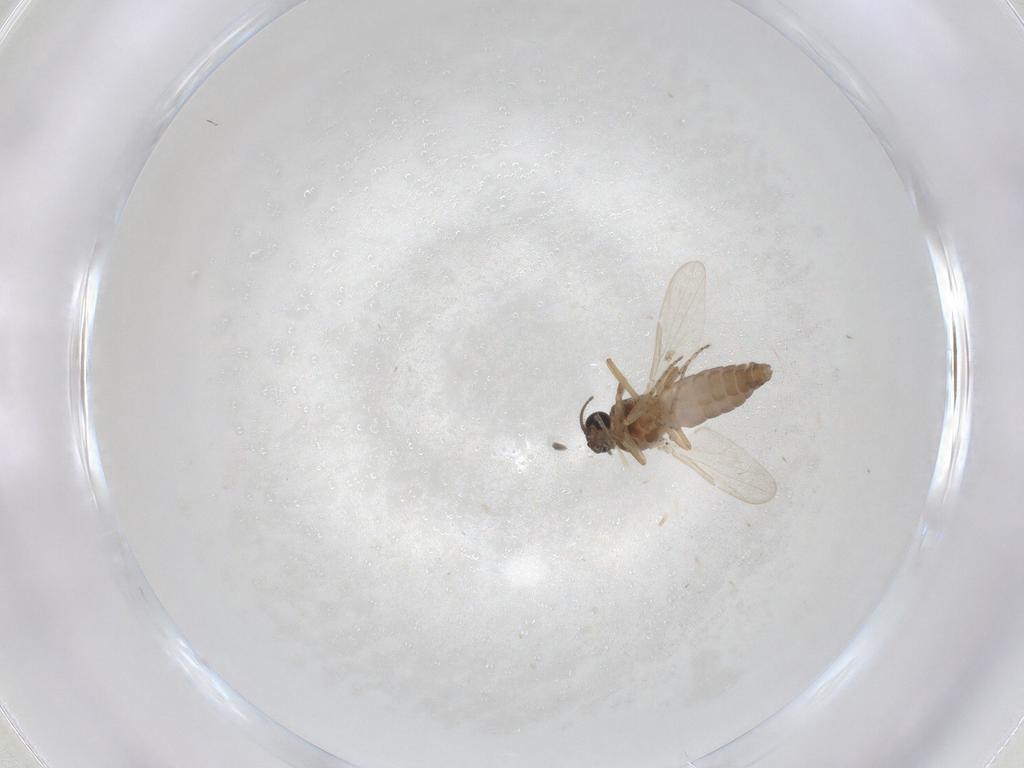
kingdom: Animalia
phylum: Arthropoda
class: Insecta
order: Diptera
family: Ceratopogonidae
